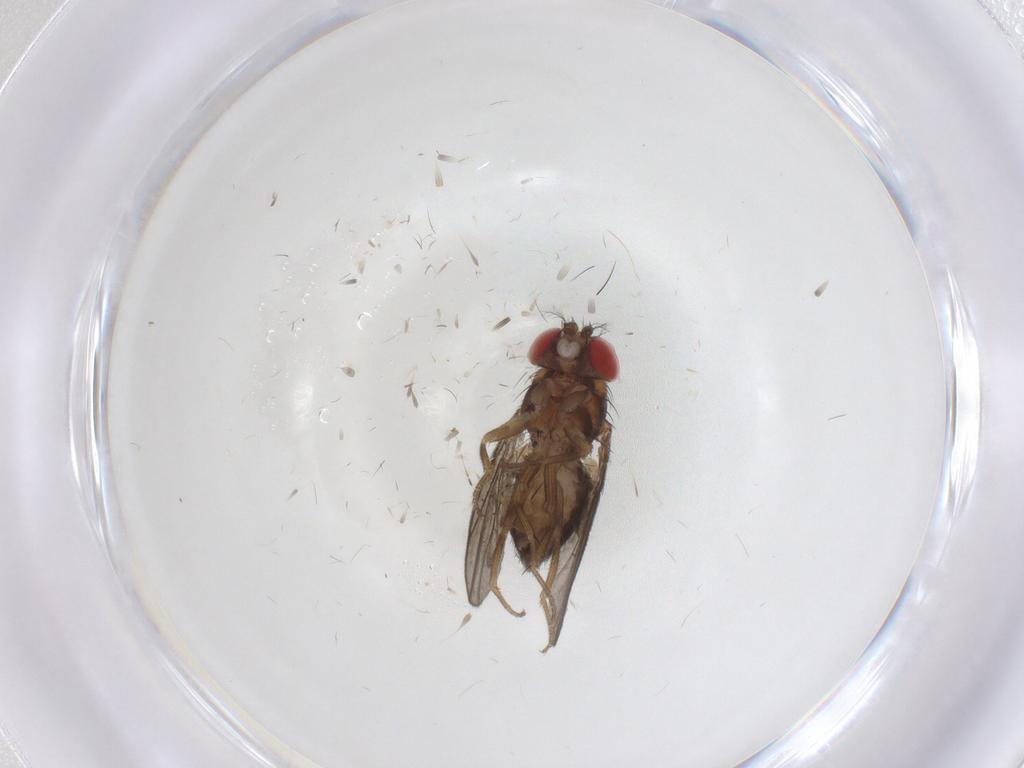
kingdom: Animalia
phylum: Arthropoda
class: Insecta
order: Diptera
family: Drosophilidae
